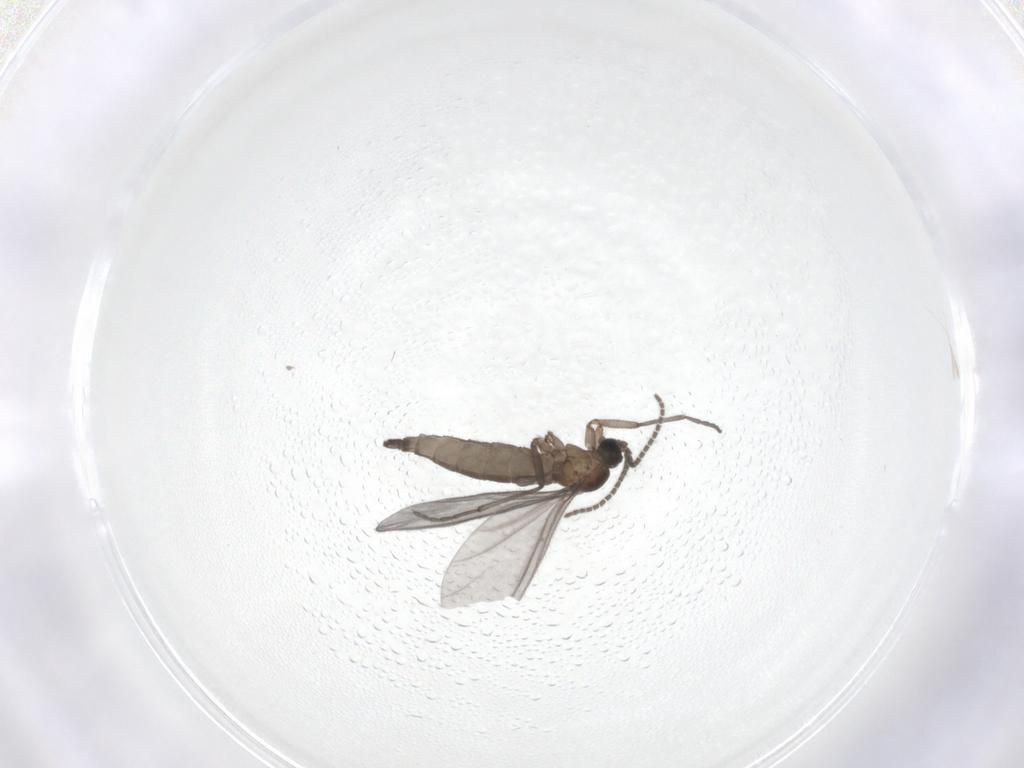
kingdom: Animalia
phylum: Arthropoda
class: Insecta
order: Diptera
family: Sciaridae
